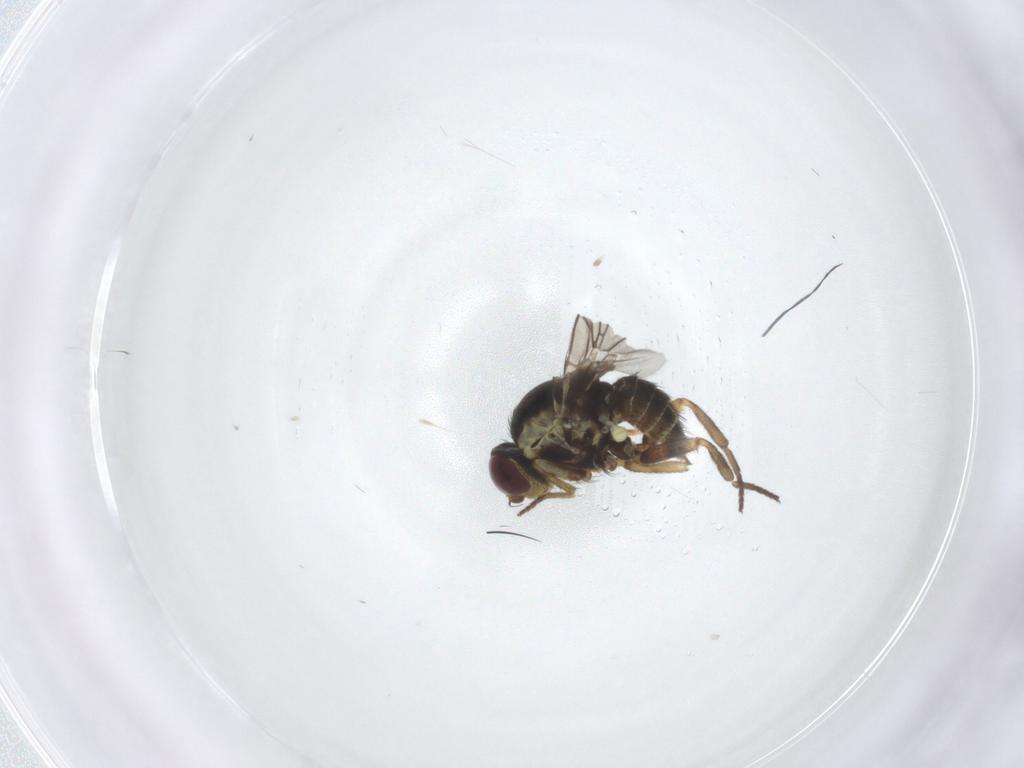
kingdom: Animalia
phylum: Arthropoda
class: Insecta
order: Diptera
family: Agromyzidae
